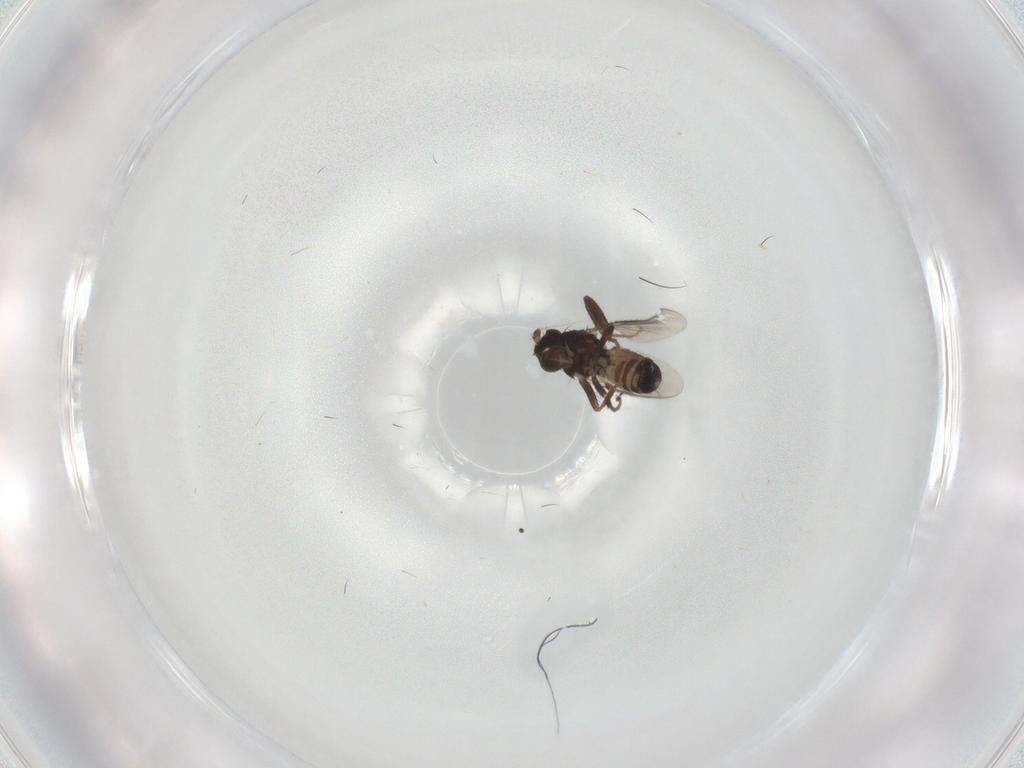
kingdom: Animalia
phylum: Arthropoda
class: Insecta
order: Diptera
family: Sphaeroceridae
